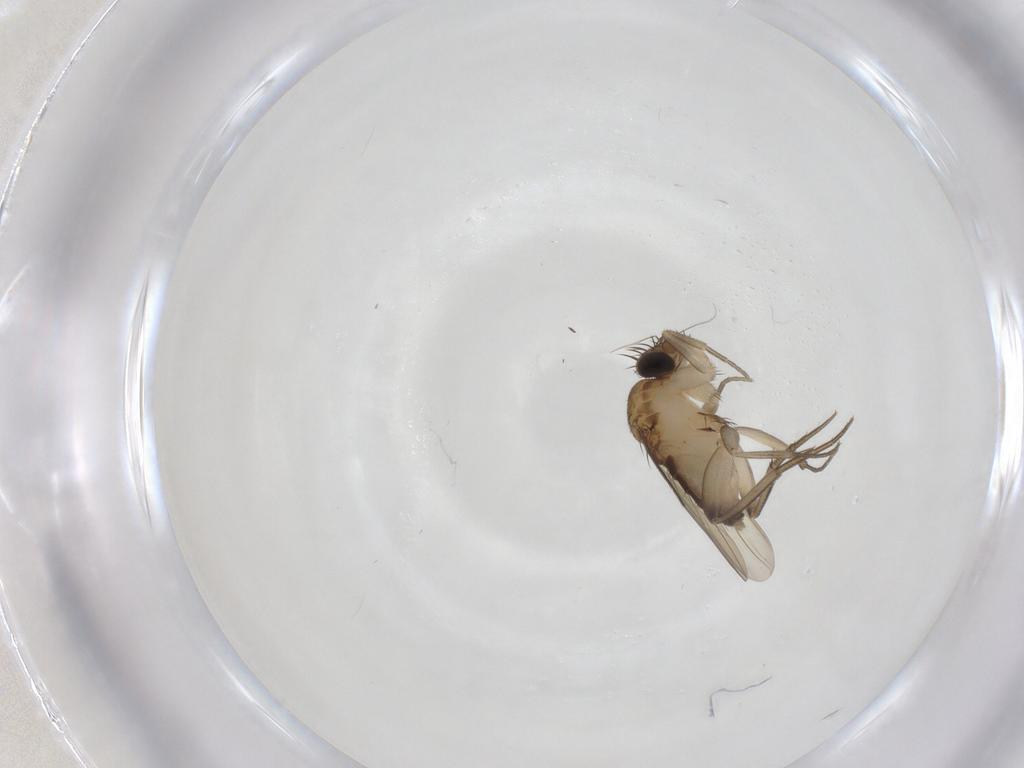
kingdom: Animalia
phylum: Arthropoda
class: Insecta
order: Diptera
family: Phoridae
